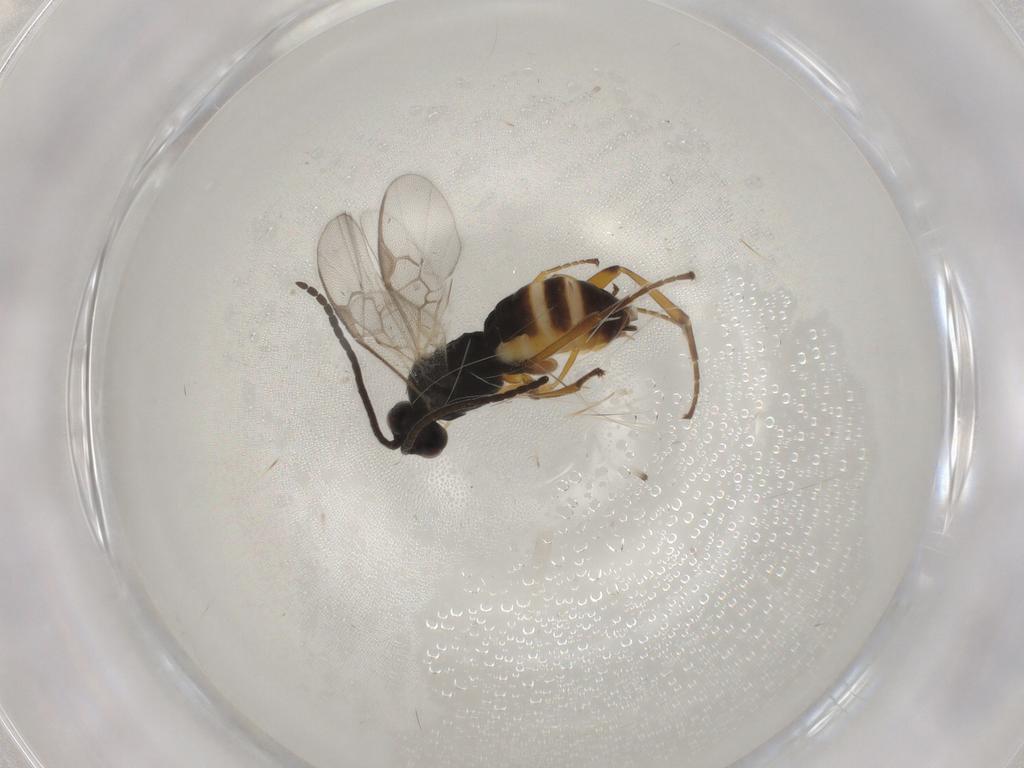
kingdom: Animalia
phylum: Arthropoda
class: Insecta
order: Hymenoptera
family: Braconidae
